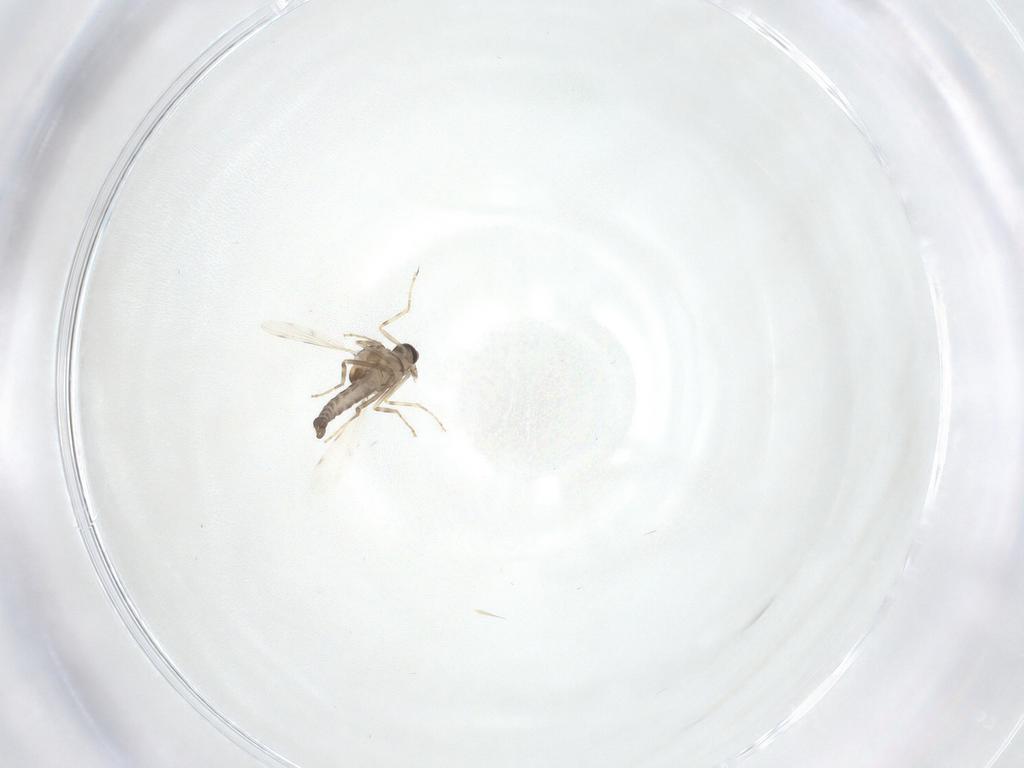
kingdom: Animalia
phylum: Arthropoda
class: Insecta
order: Diptera
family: Ceratopogonidae
